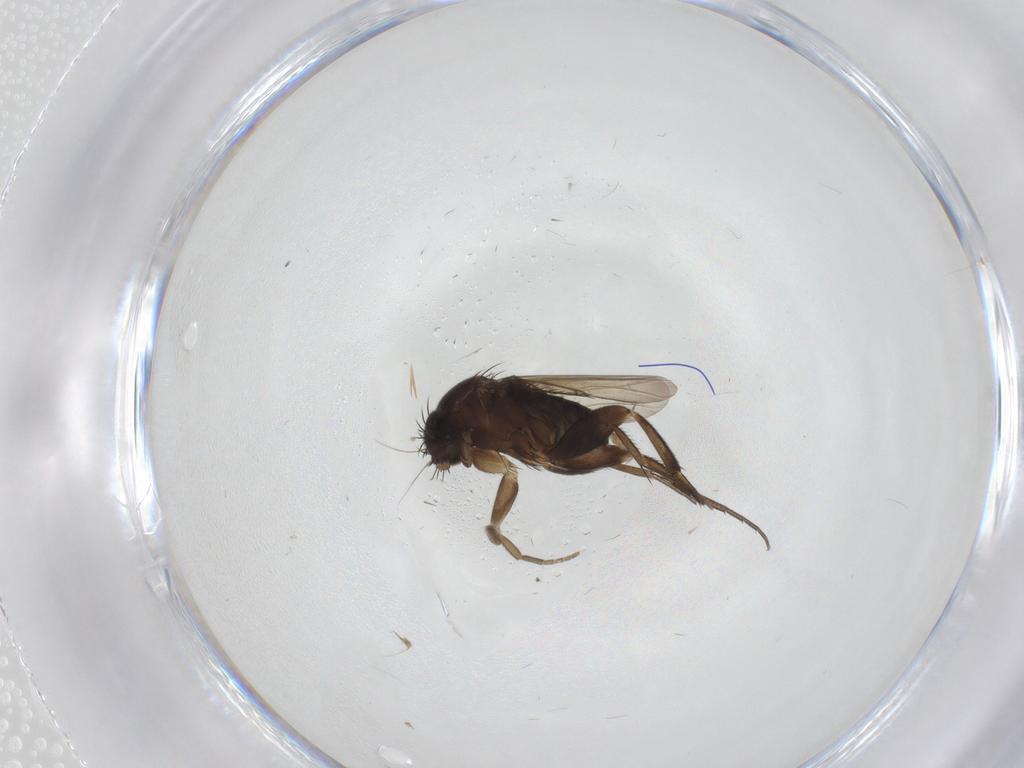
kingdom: Animalia
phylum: Arthropoda
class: Insecta
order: Diptera
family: Phoridae
